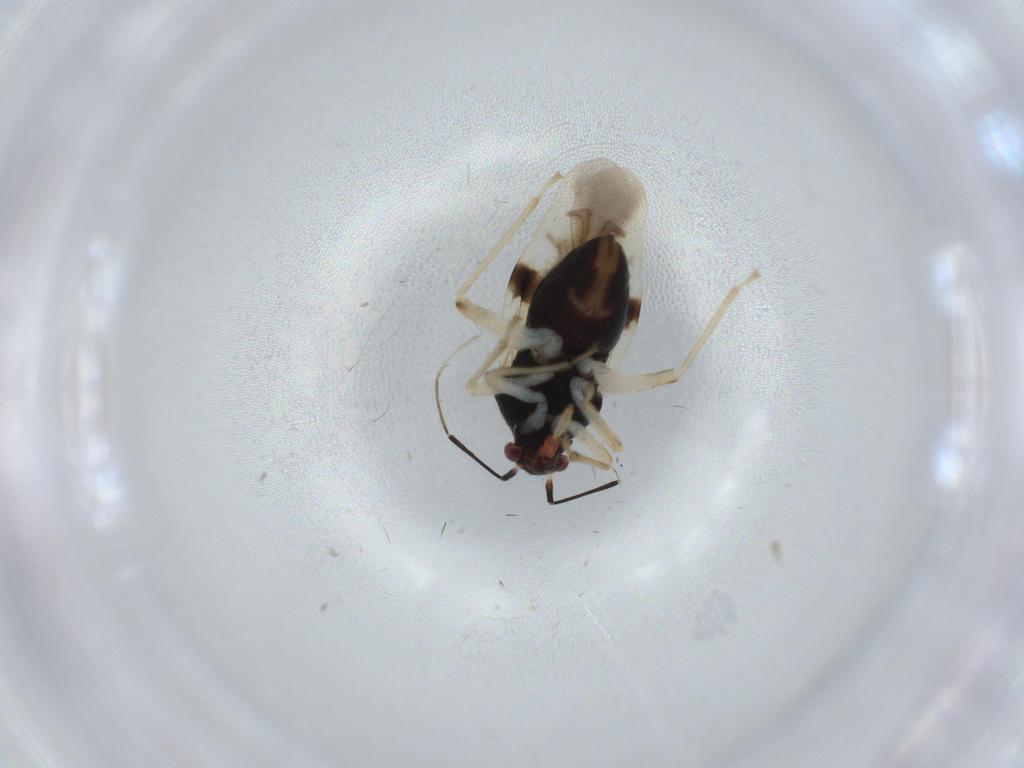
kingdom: Animalia
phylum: Arthropoda
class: Insecta
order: Hemiptera
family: Miridae
